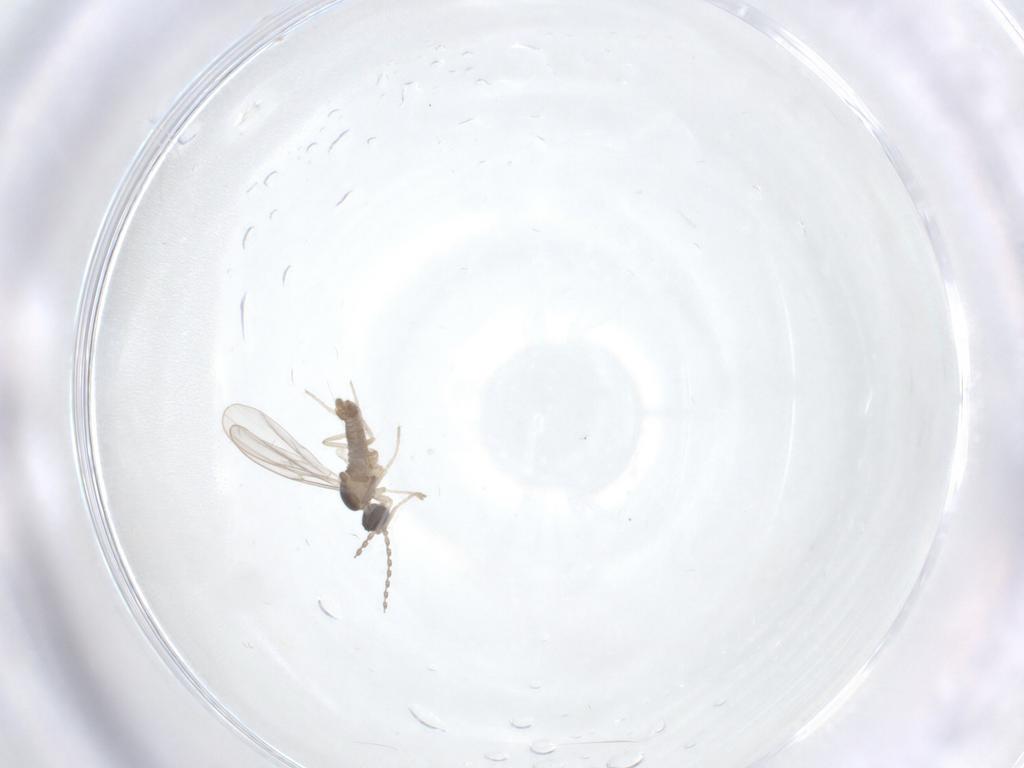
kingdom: Animalia
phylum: Arthropoda
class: Insecta
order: Diptera
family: Cecidomyiidae
